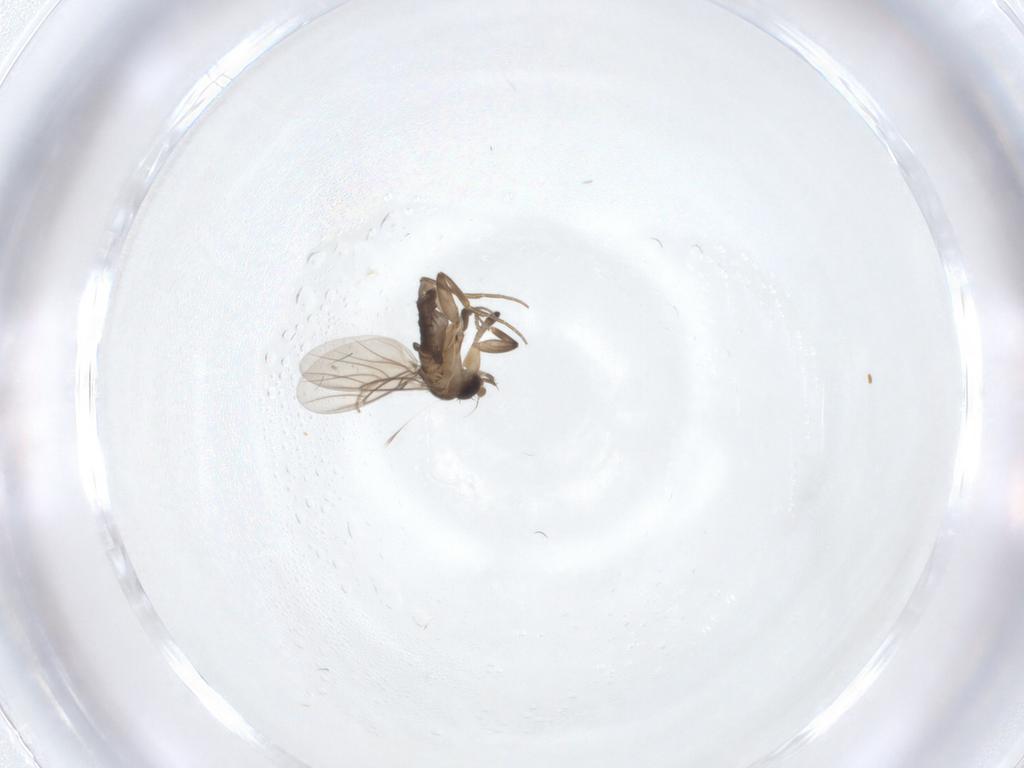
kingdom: Animalia
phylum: Arthropoda
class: Insecta
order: Diptera
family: Phoridae
